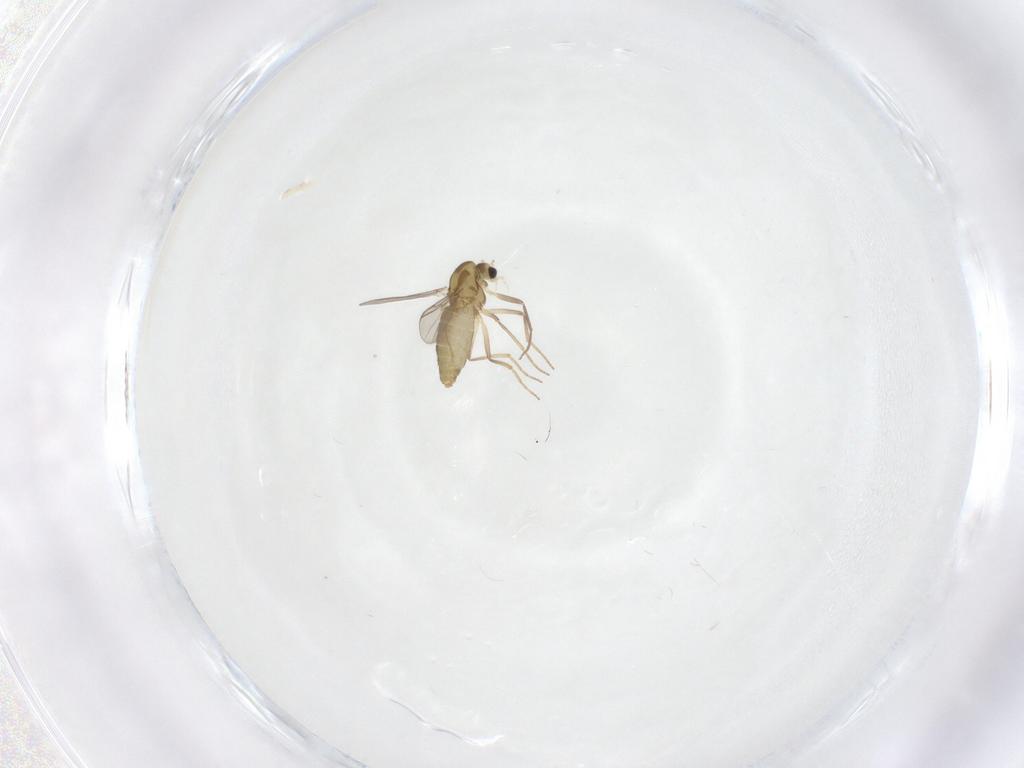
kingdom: Animalia
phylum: Arthropoda
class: Insecta
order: Diptera
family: Chironomidae
